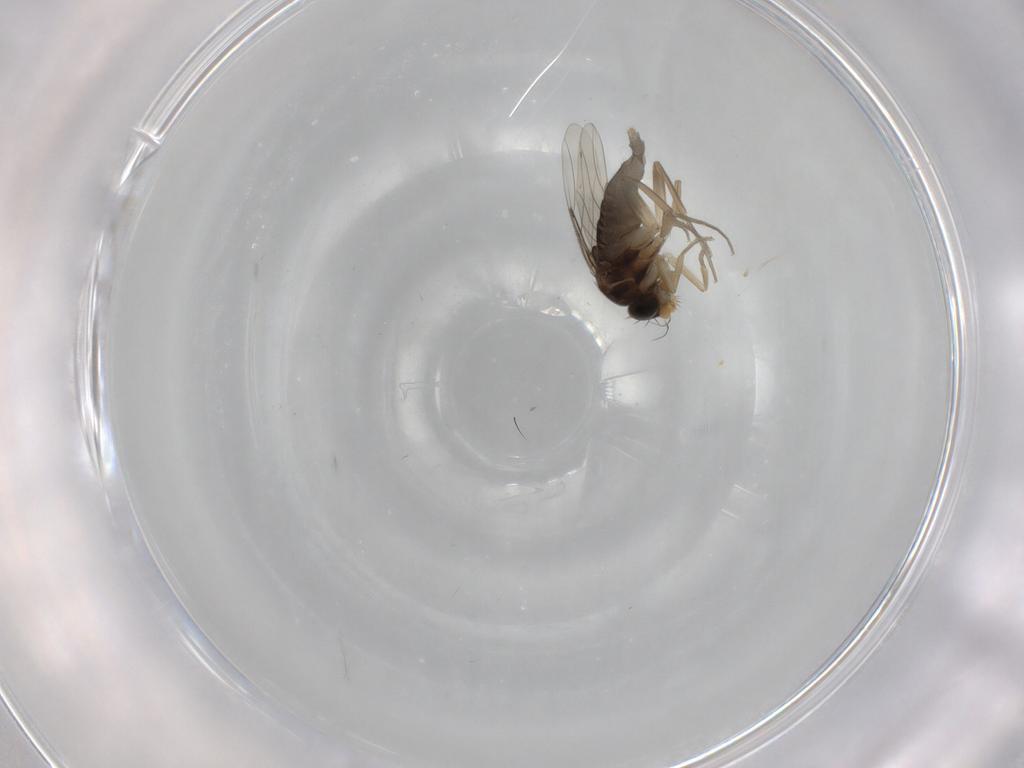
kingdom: Animalia
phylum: Arthropoda
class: Insecta
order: Diptera
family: Phoridae
